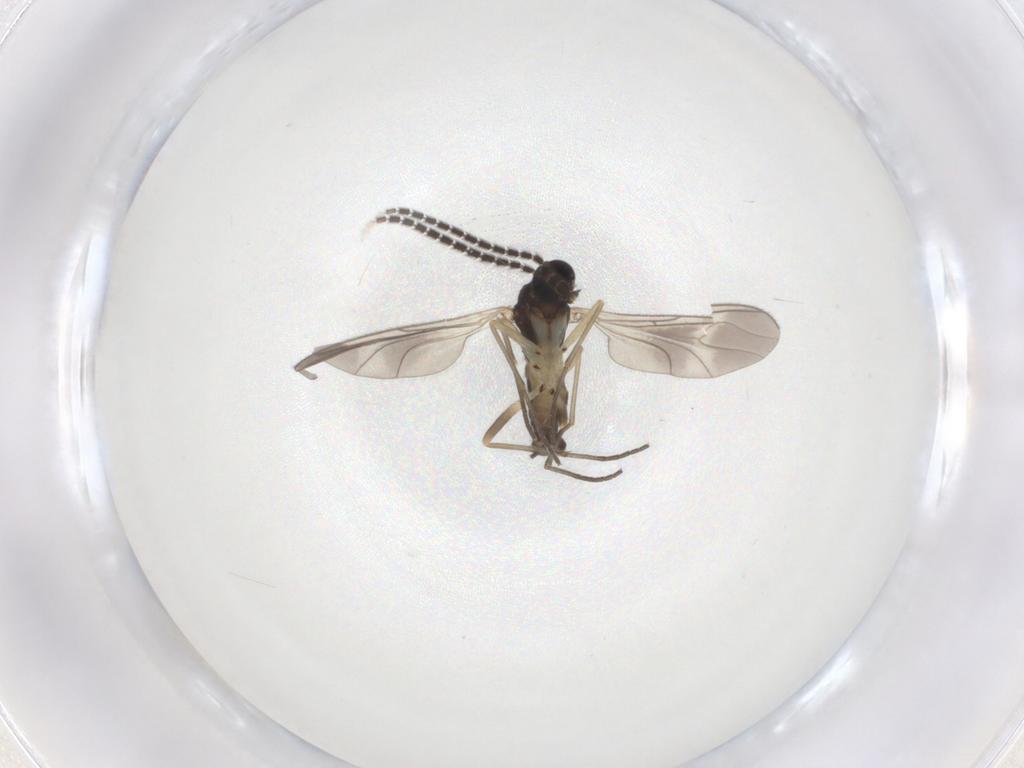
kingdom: Animalia
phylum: Arthropoda
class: Insecta
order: Diptera
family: Sciaridae
